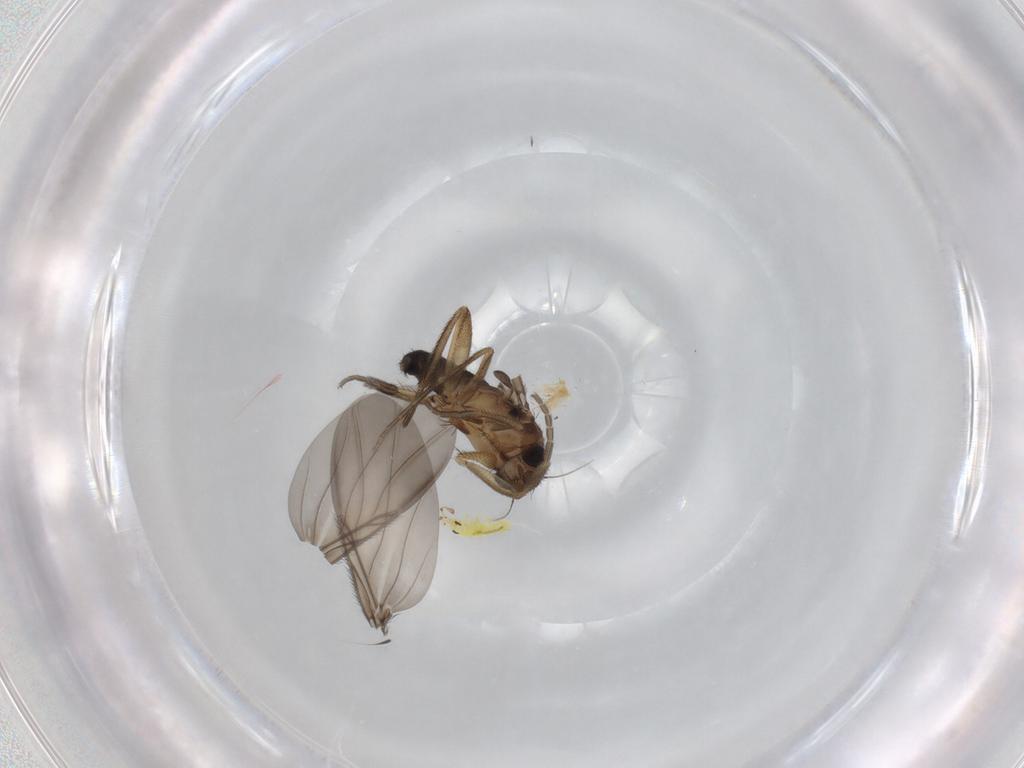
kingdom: Animalia
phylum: Arthropoda
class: Insecta
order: Diptera
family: Phoridae
